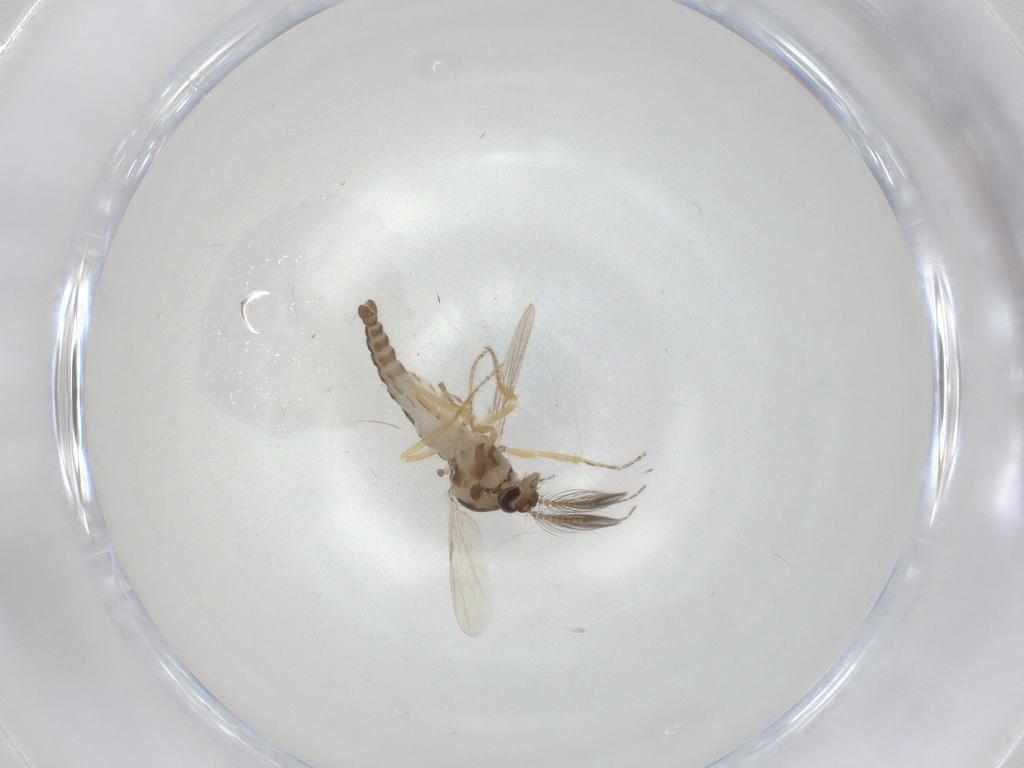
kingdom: Animalia
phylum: Arthropoda
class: Insecta
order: Diptera
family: Ceratopogonidae
